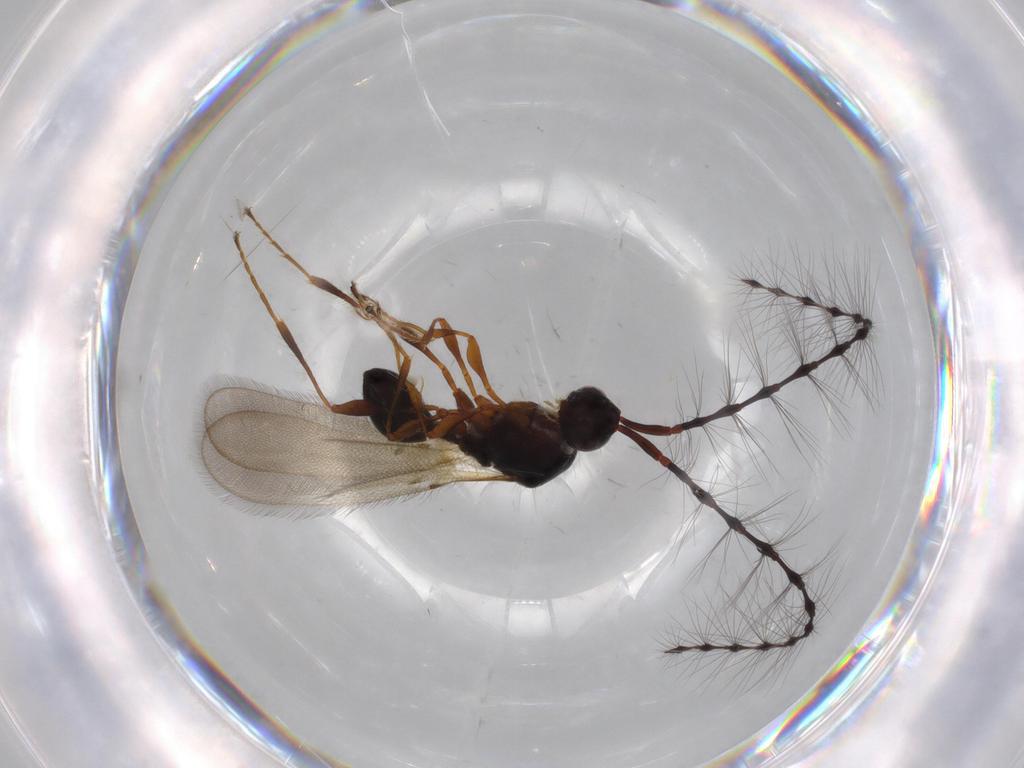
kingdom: Animalia
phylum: Arthropoda
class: Insecta
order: Hymenoptera
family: Diapriidae
